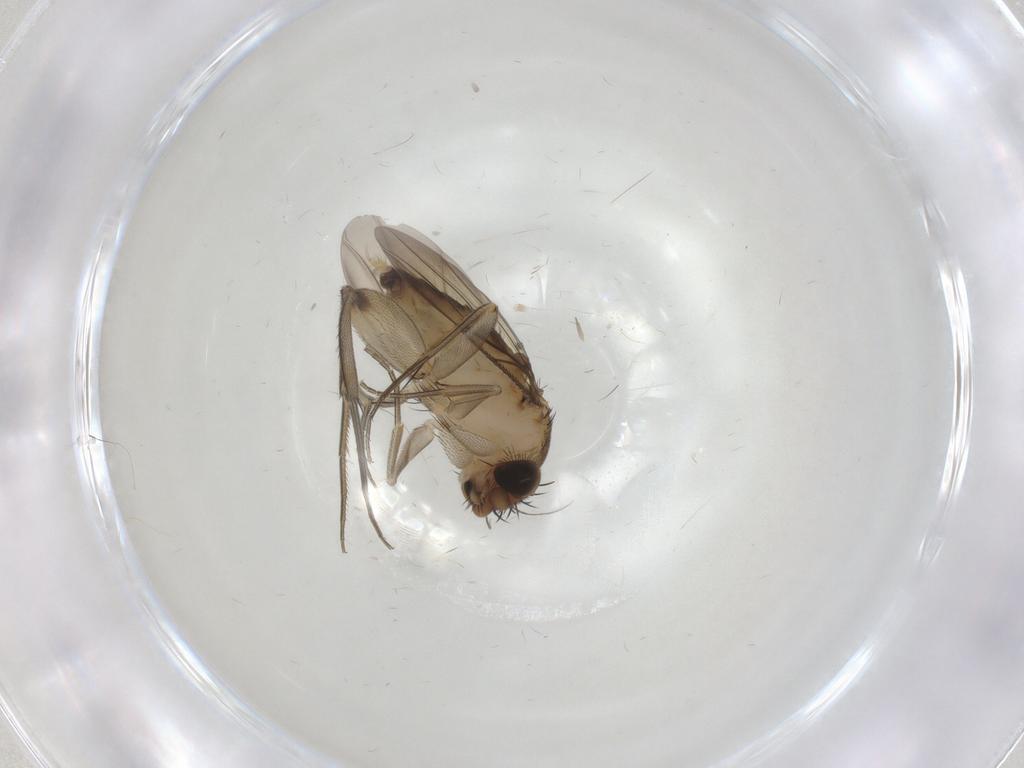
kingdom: Animalia
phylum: Arthropoda
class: Insecta
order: Diptera
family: Phoridae
